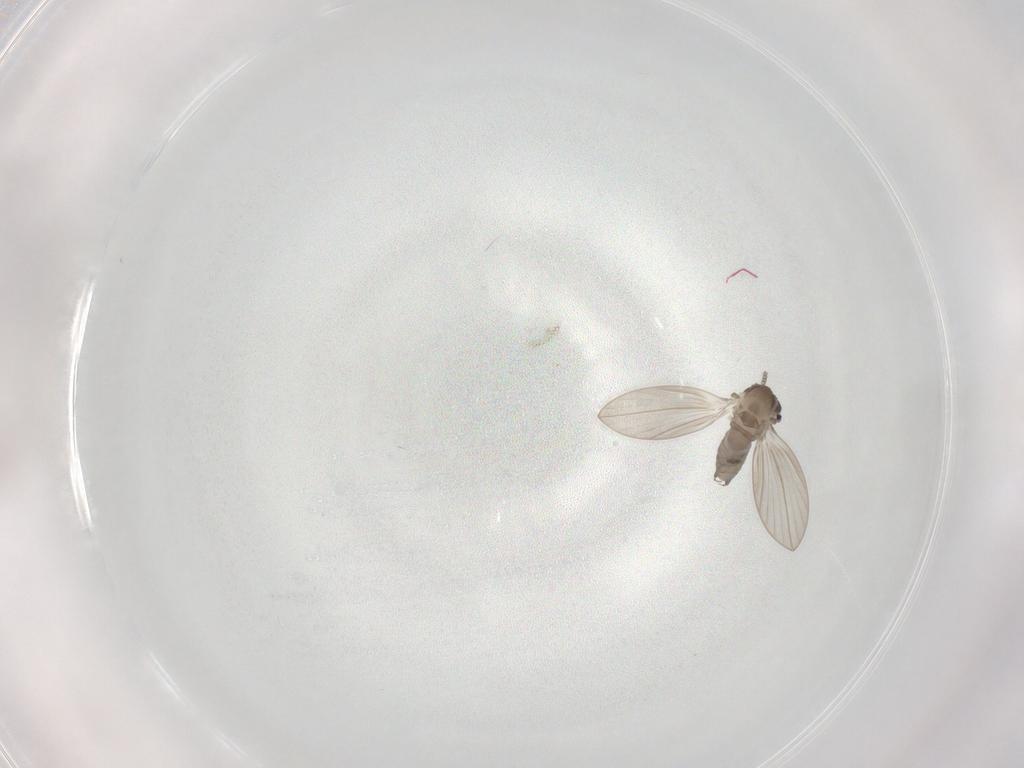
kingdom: Animalia
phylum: Arthropoda
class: Insecta
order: Diptera
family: Psychodidae
